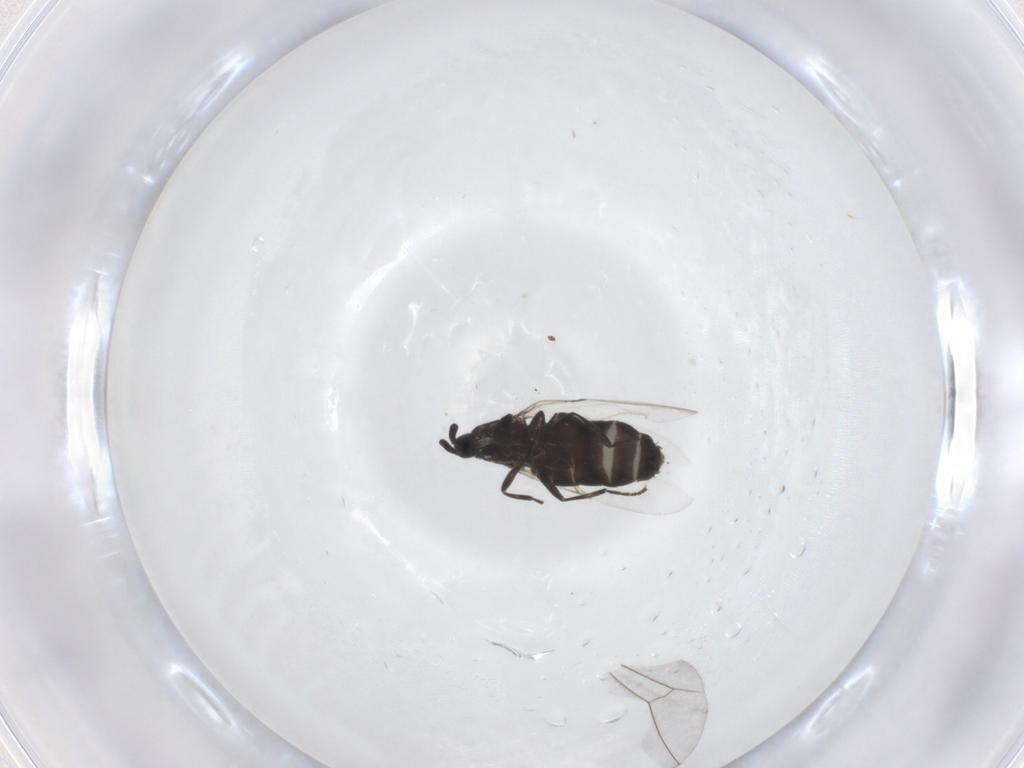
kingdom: Animalia
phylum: Arthropoda
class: Insecta
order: Diptera
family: Scatopsidae
